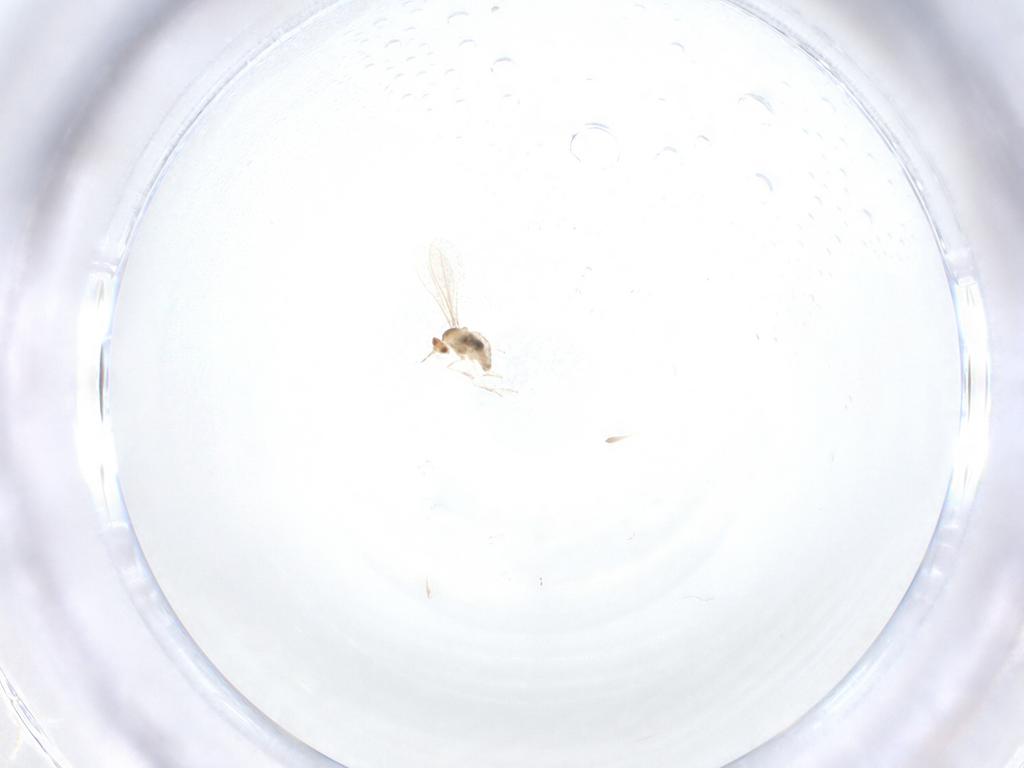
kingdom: Animalia
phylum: Arthropoda
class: Insecta
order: Diptera
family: Cecidomyiidae
